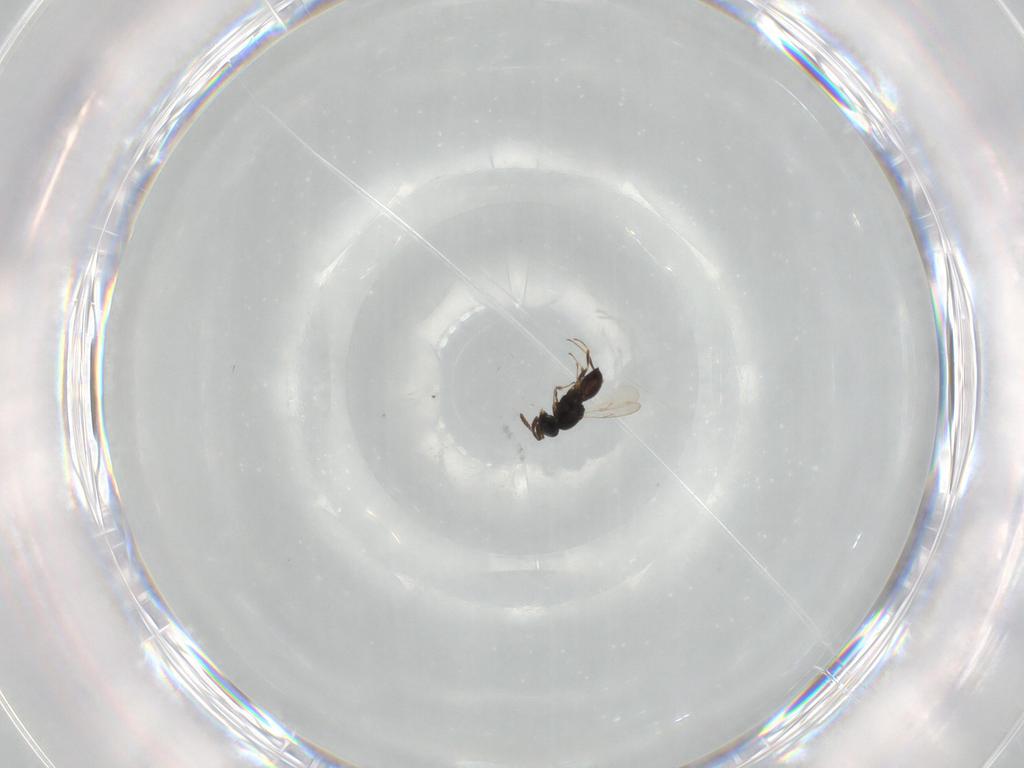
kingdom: Animalia
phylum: Arthropoda
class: Insecta
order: Hymenoptera
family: Scelionidae
